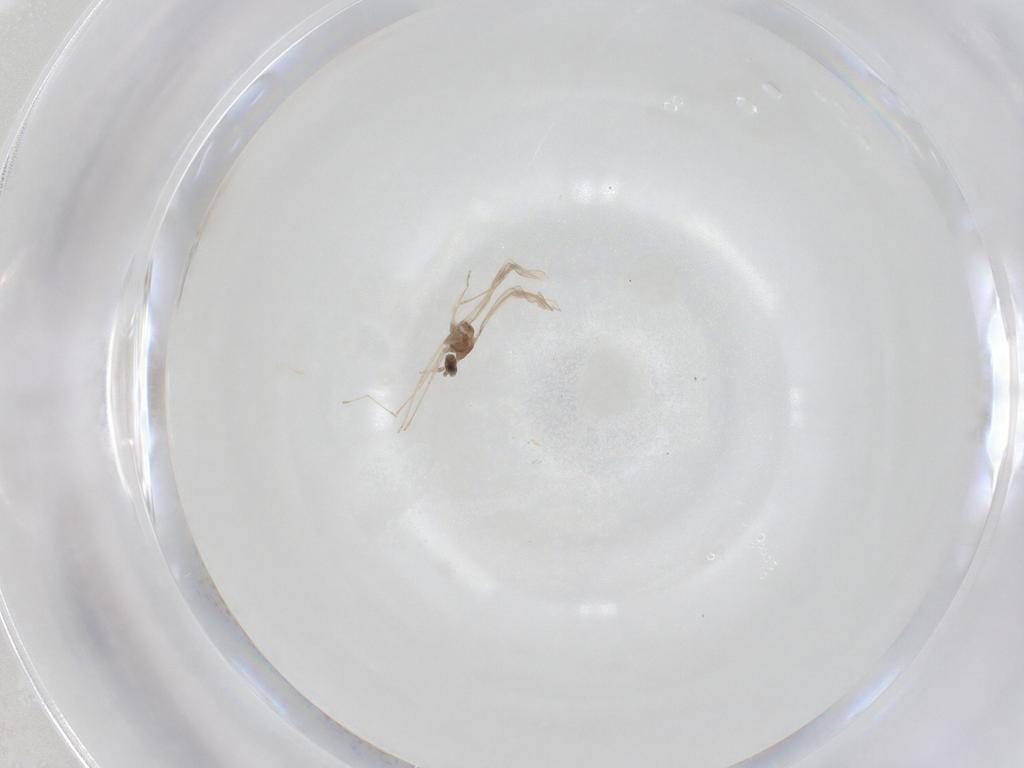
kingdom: Animalia
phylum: Arthropoda
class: Insecta
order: Diptera
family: Cecidomyiidae
